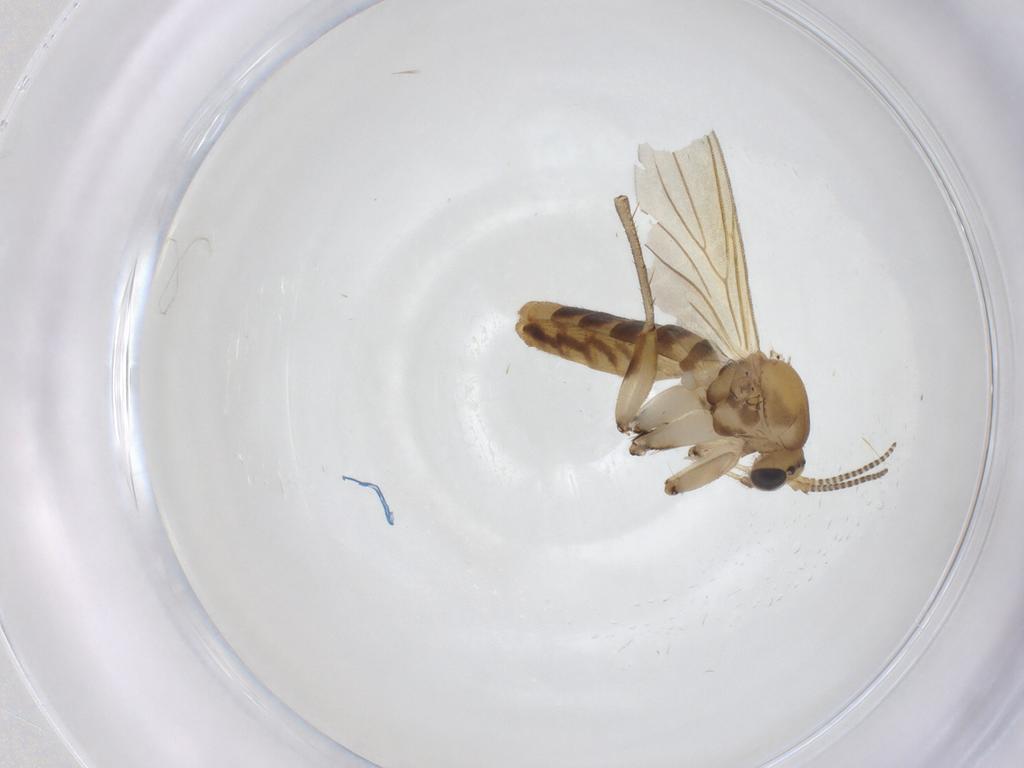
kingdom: Animalia
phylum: Arthropoda
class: Insecta
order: Diptera
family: Mycetophilidae
